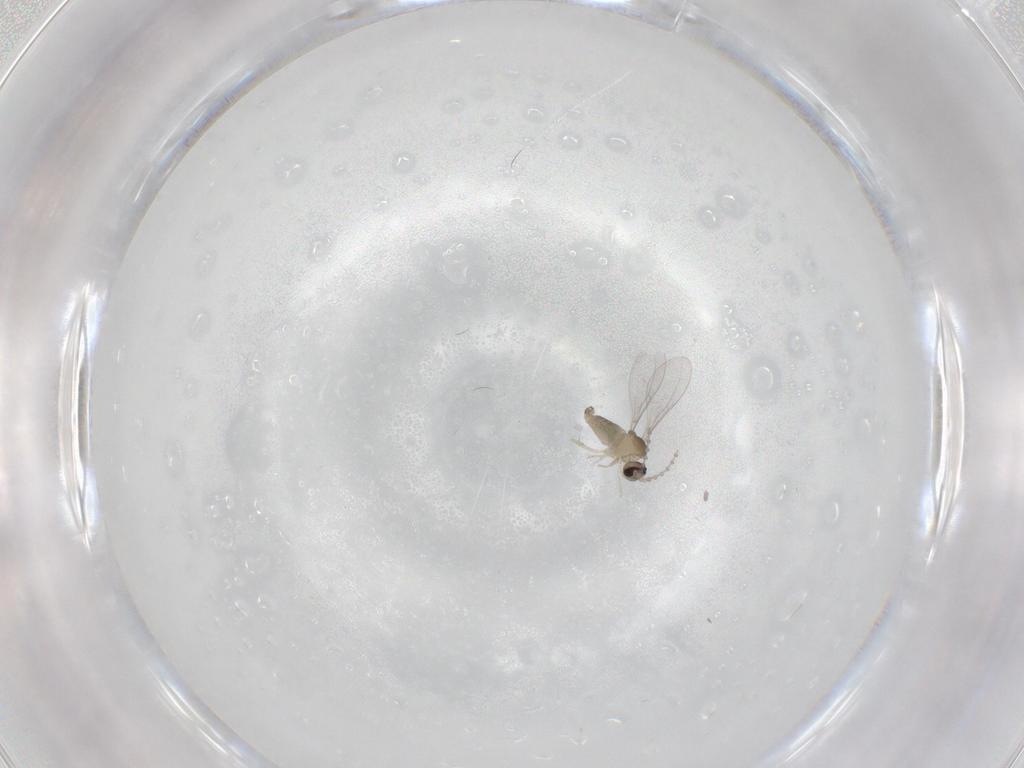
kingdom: Animalia
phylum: Arthropoda
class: Insecta
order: Diptera
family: Cecidomyiidae
